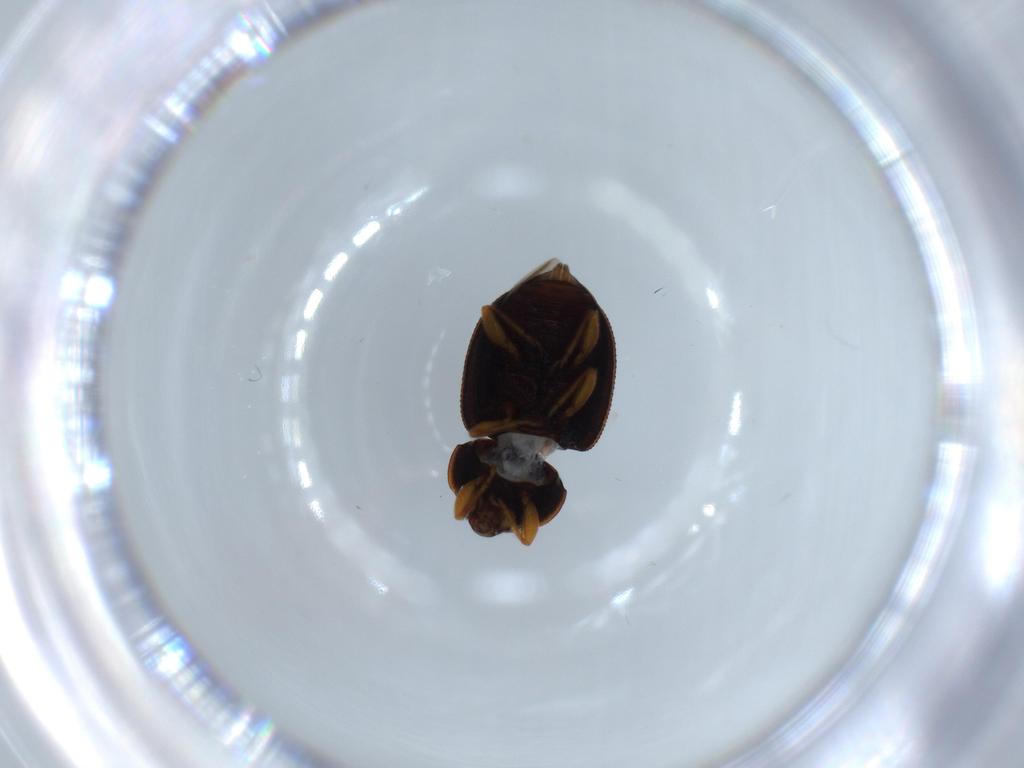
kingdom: Animalia
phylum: Arthropoda
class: Insecta
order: Coleoptera
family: Coccinellidae
